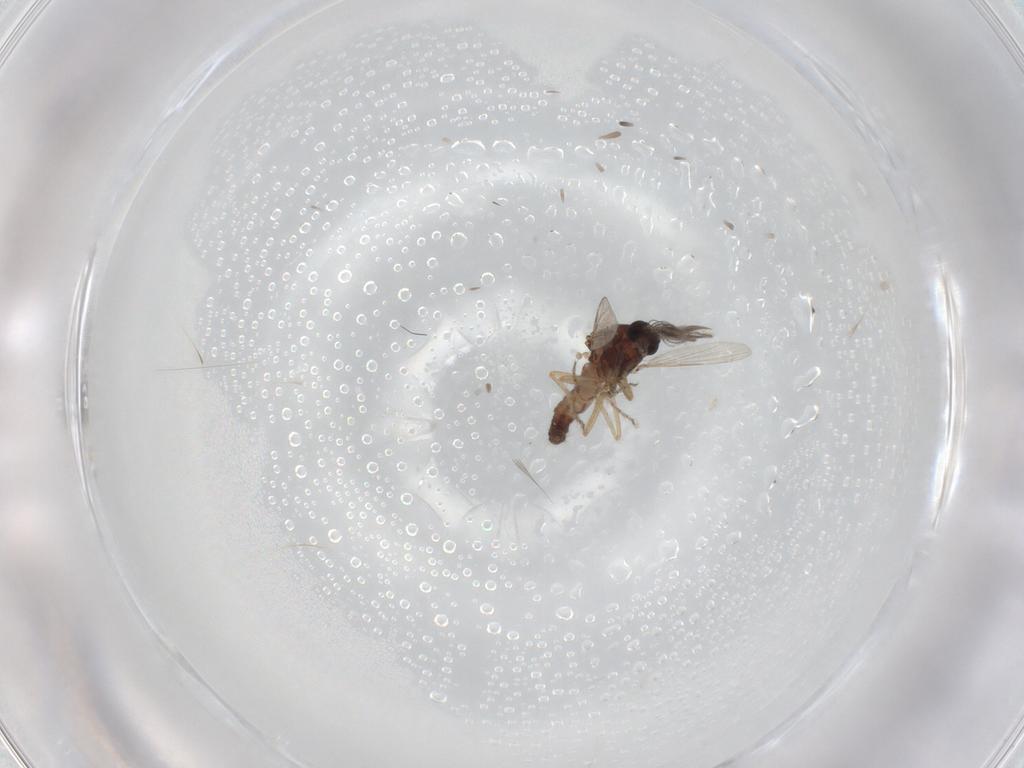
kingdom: Animalia
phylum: Arthropoda
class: Insecta
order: Diptera
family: Ceratopogonidae
